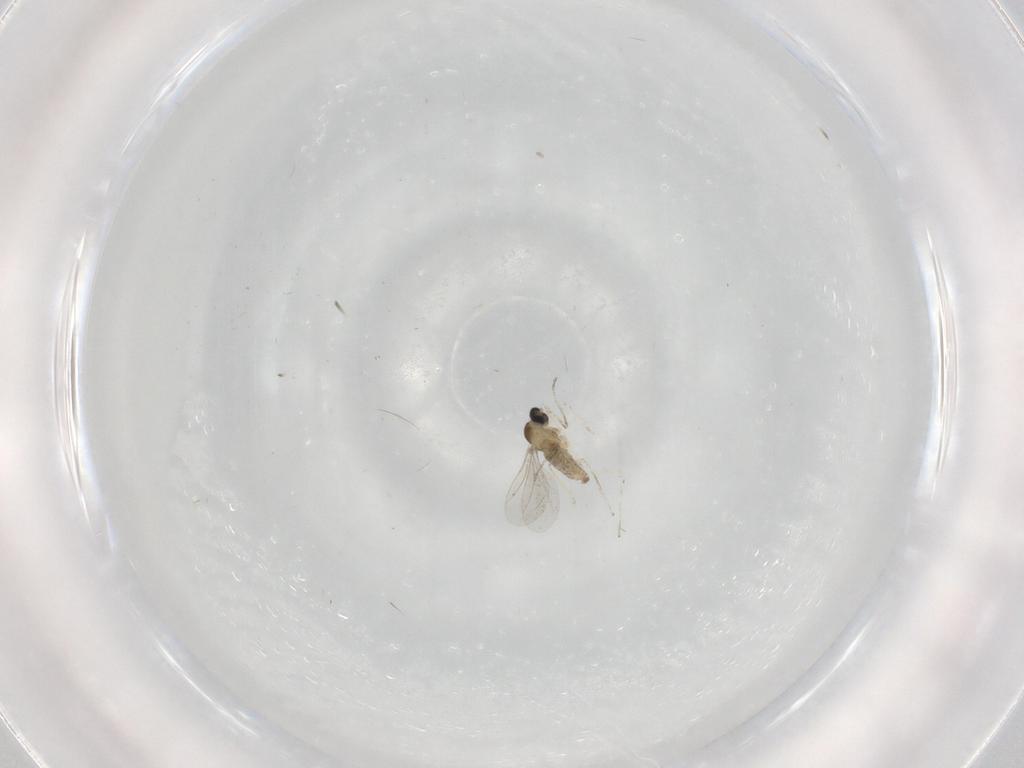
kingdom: Animalia
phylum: Arthropoda
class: Insecta
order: Diptera
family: Cecidomyiidae
